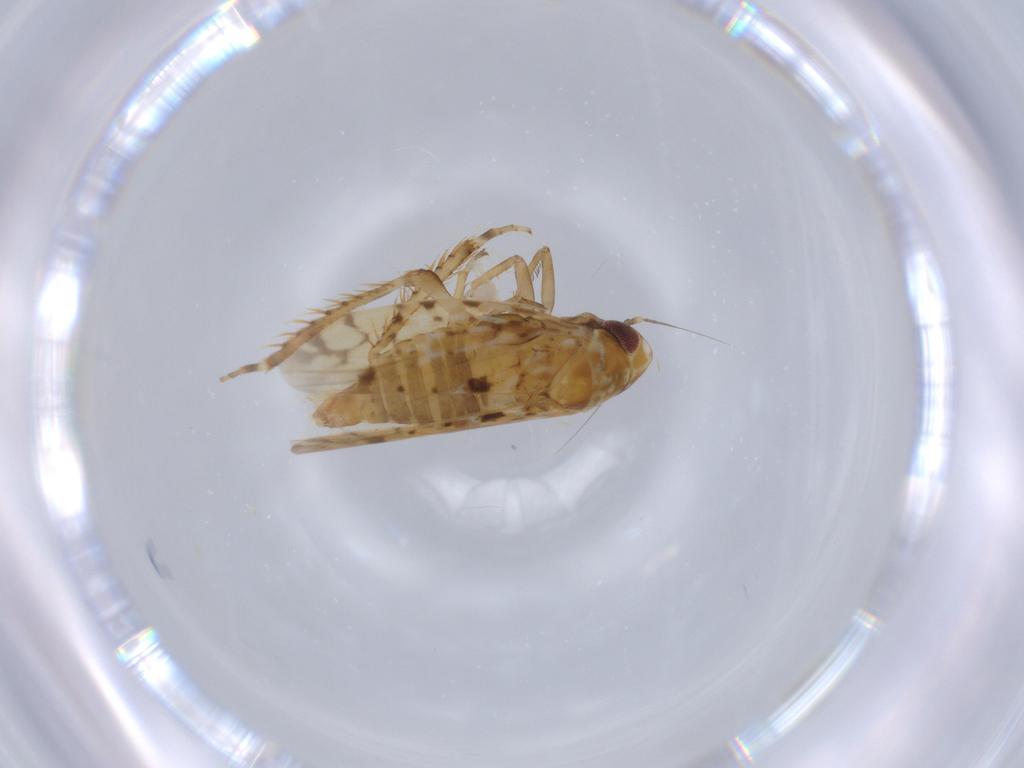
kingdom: Animalia
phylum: Arthropoda
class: Insecta
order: Hemiptera
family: Cicadellidae
